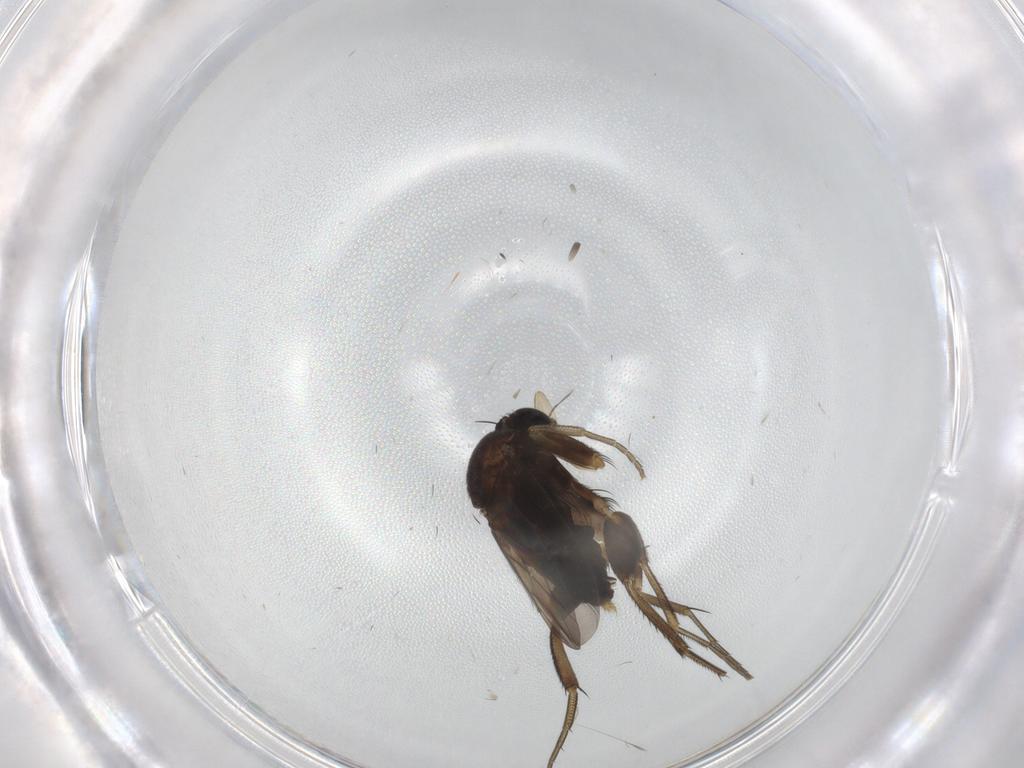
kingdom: Animalia
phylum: Arthropoda
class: Insecta
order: Diptera
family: Phoridae
